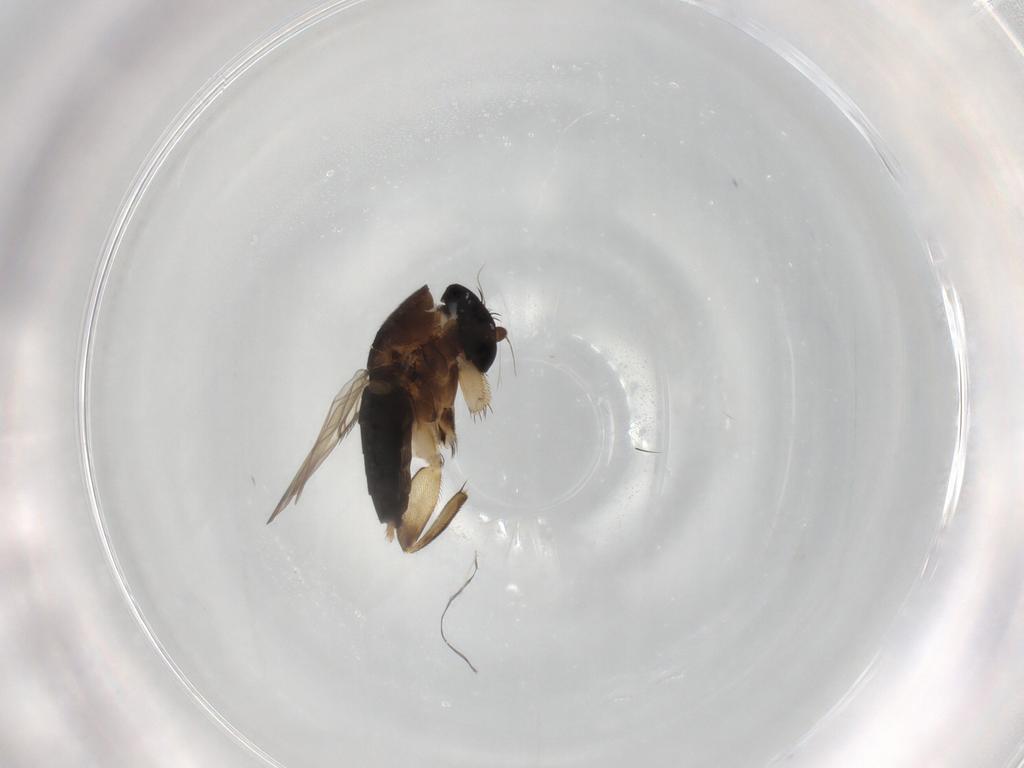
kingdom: Animalia
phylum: Arthropoda
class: Insecta
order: Diptera
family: Phoridae
